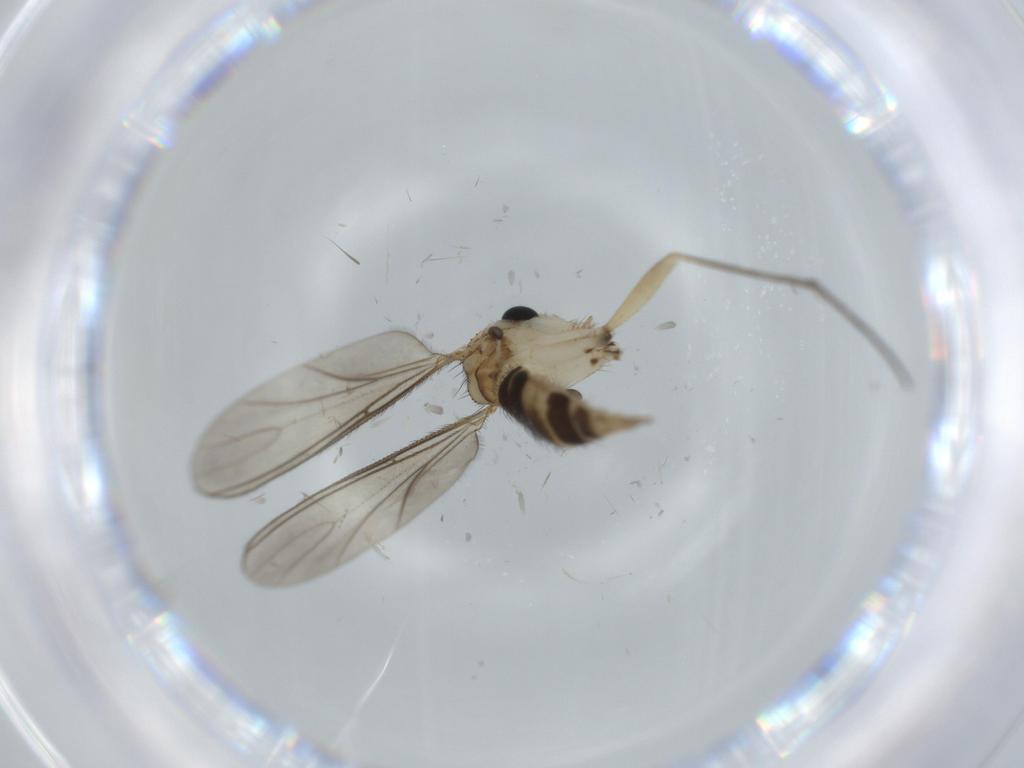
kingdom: Animalia
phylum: Arthropoda
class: Insecta
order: Diptera
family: Cecidomyiidae
